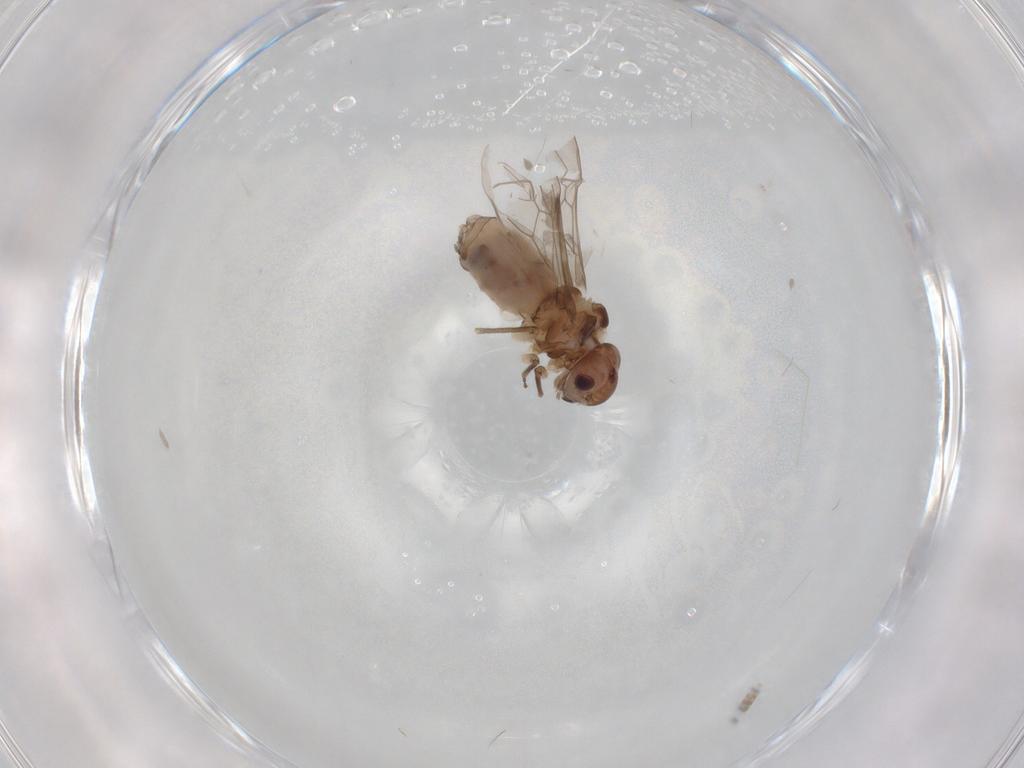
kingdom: Animalia
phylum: Arthropoda
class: Insecta
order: Psocodea
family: Peripsocidae
